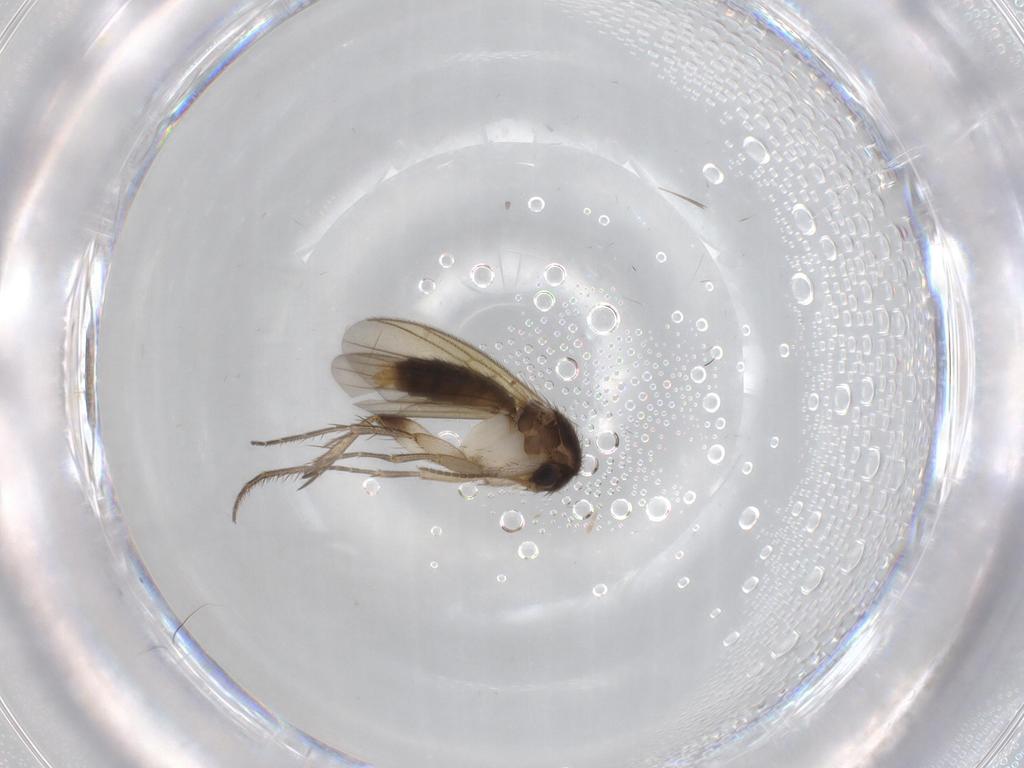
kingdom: Animalia
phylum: Arthropoda
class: Insecta
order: Diptera
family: Mycetophilidae
